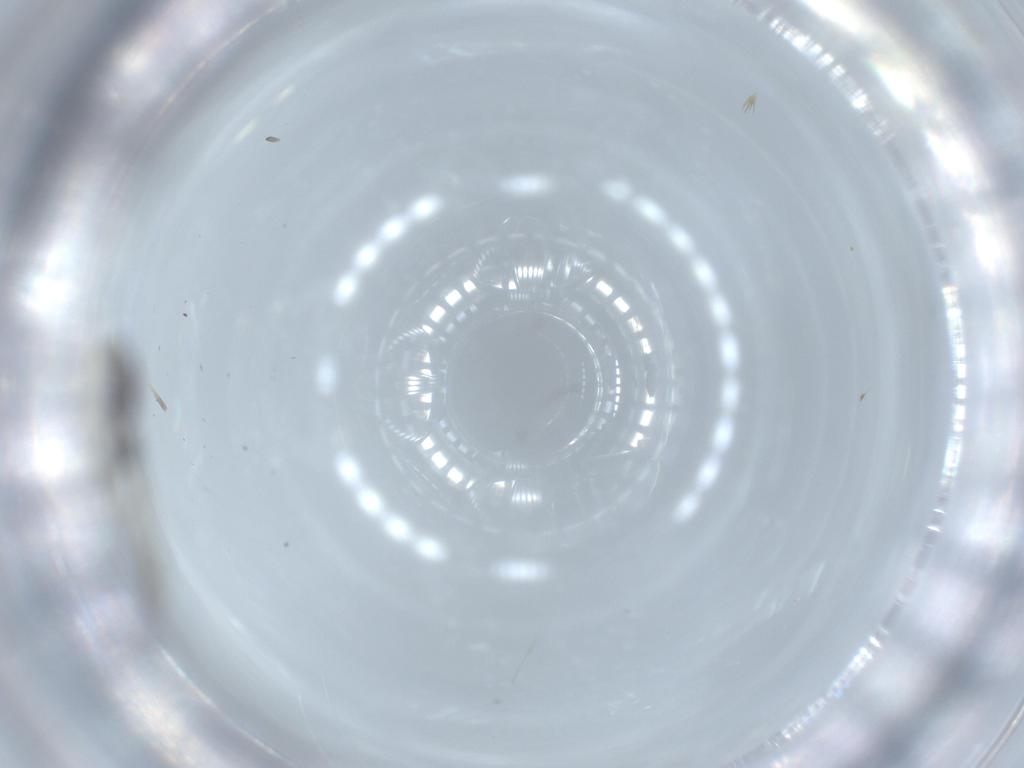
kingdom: Animalia
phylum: Arthropoda
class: Insecta
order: Diptera
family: Cecidomyiidae
